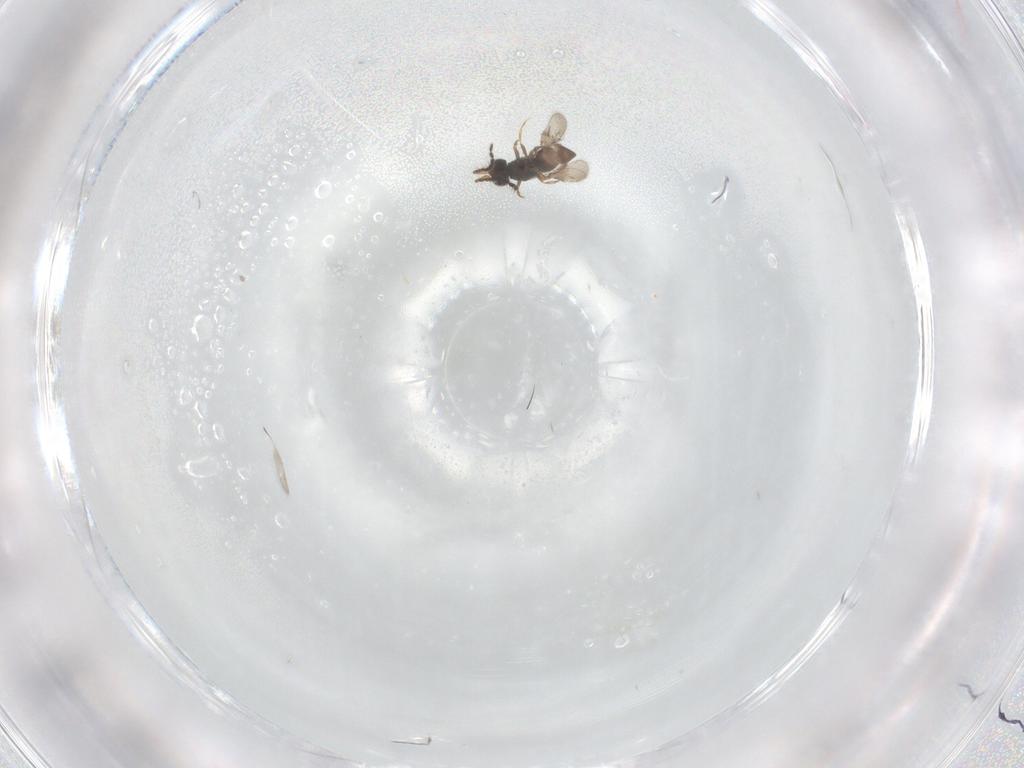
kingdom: Animalia
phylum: Arthropoda
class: Insecta
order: Hymenoptera
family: Ceraphronidae
